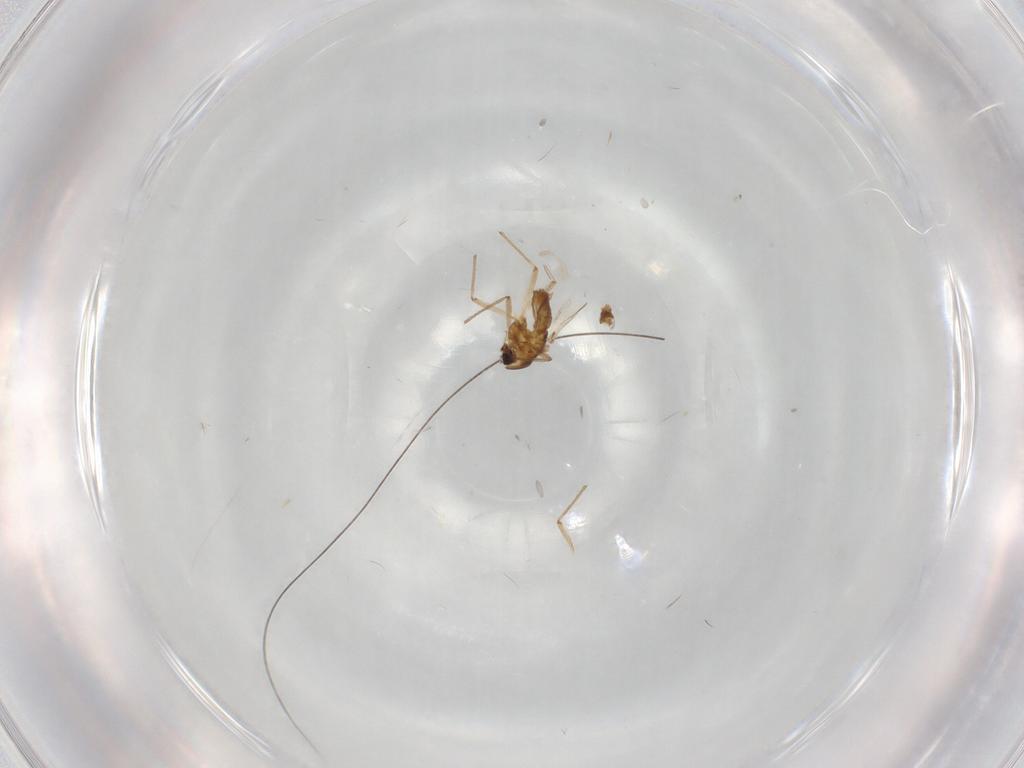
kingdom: Animalia
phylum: Arthropoda
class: Insecta
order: Diptera
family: Chironomidae
